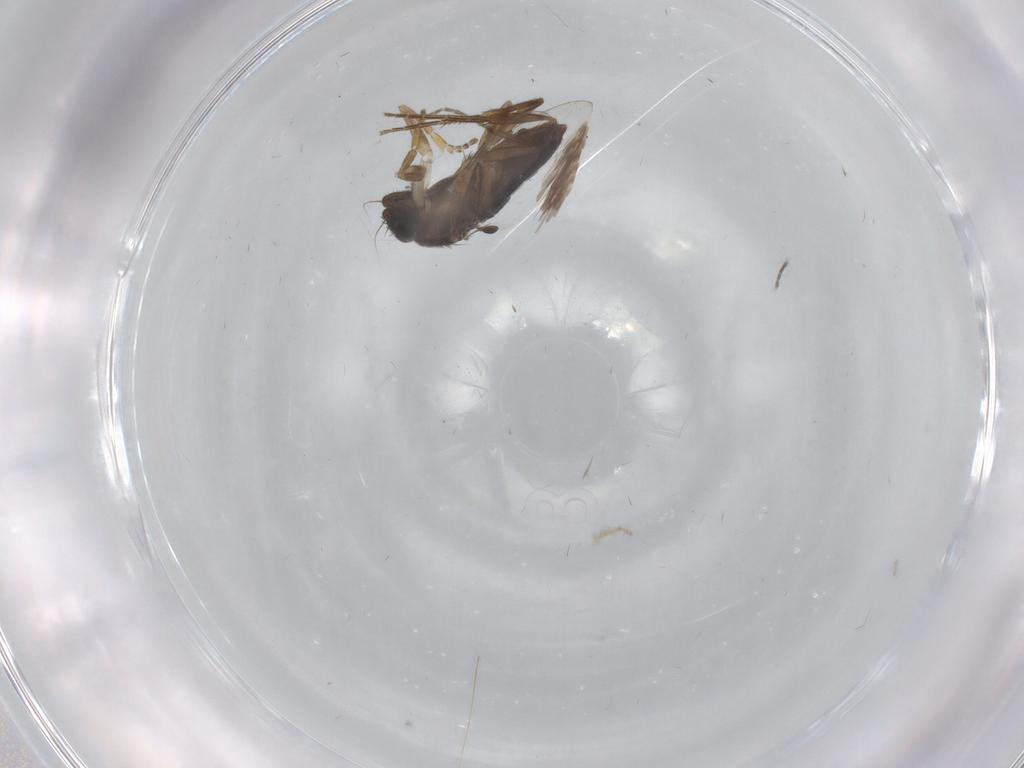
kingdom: Animalia
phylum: Arthropoda
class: Insecta
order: Diptera
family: Phoridae
